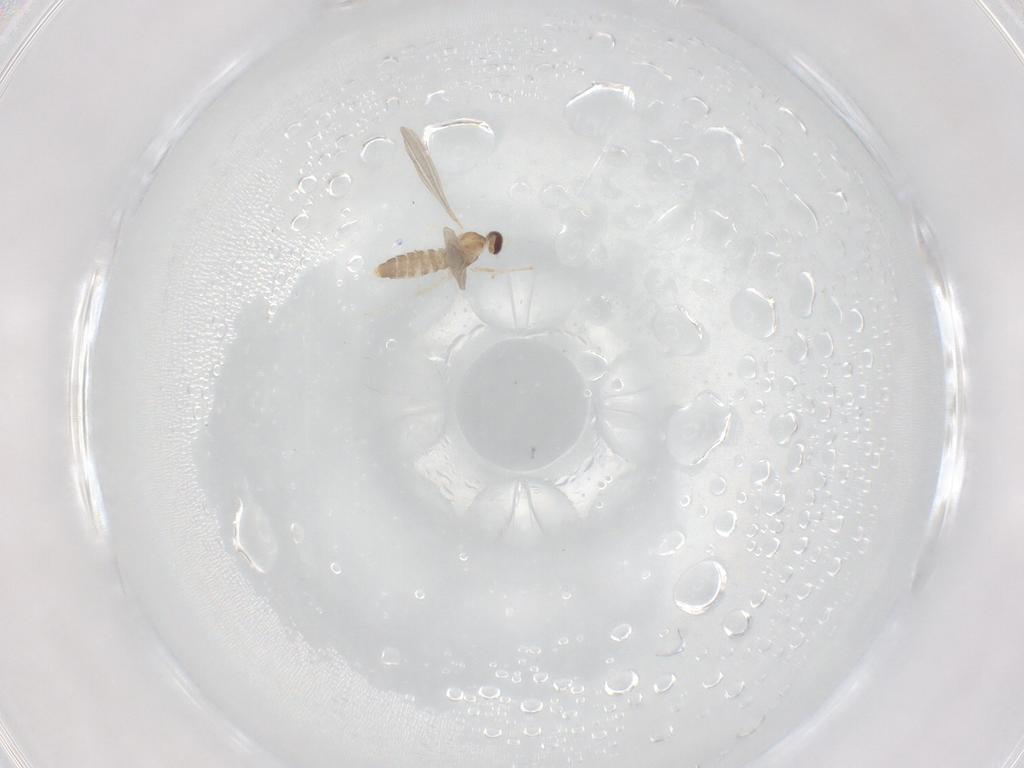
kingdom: Animalia
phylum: Arthropoda
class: Insecta
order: Diptera
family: Cecidomyiidae
